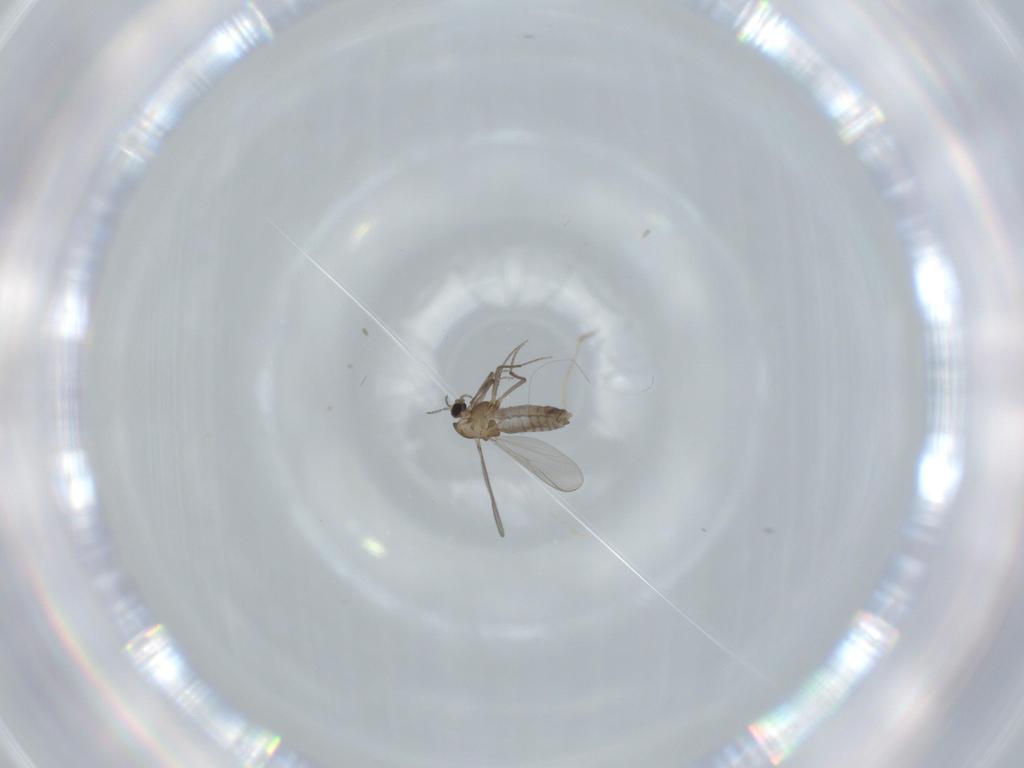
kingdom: Animalia
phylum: Arthropoda
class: Insecta
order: Diptera
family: Chironomidae
